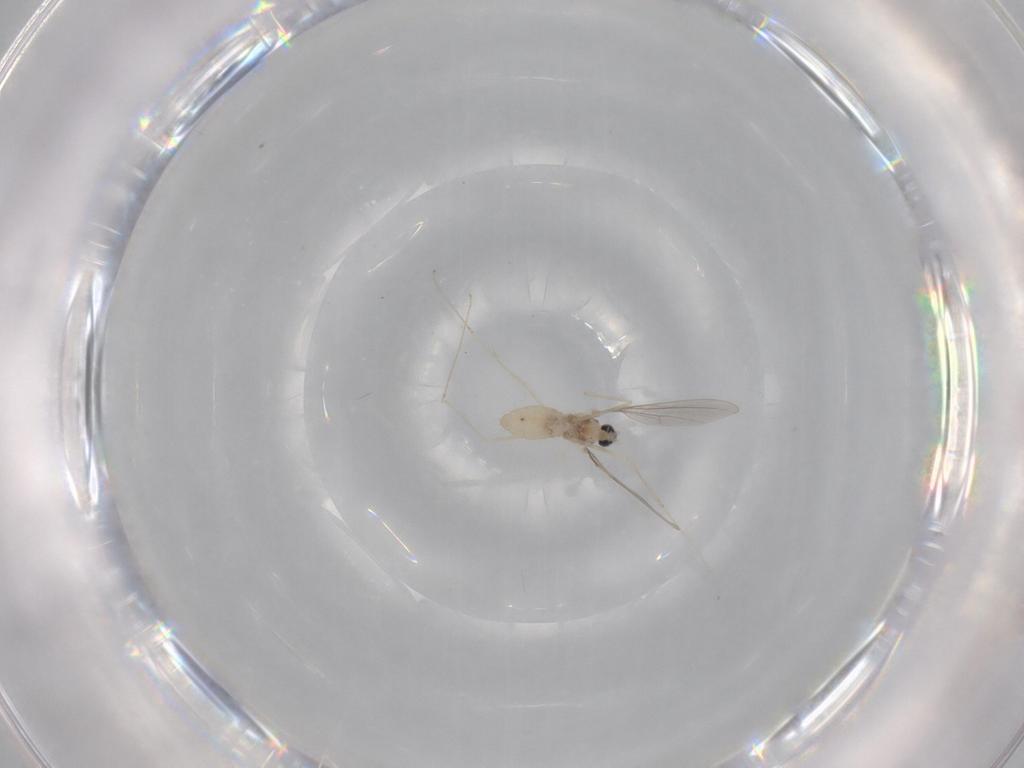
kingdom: Animalia
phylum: Arthropoda
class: Insecta
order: Diptera
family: Cecidomyiidae
